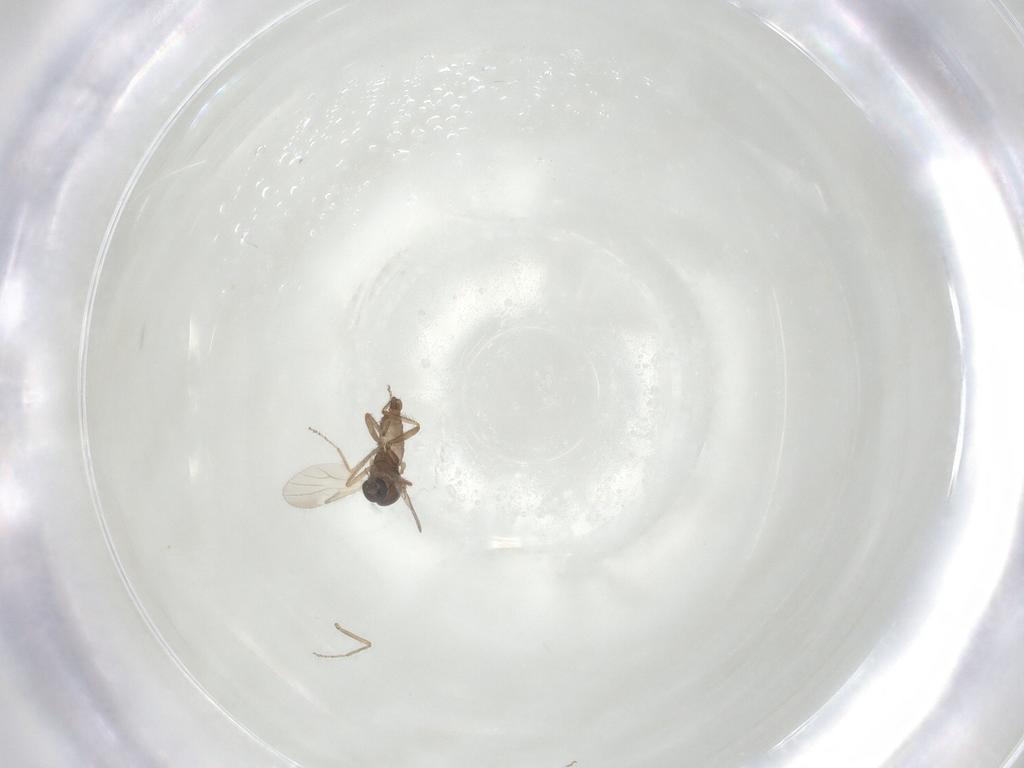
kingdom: Animalia
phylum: Arthropoda
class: Insecta
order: Diptera
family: Ceratopogonidae
